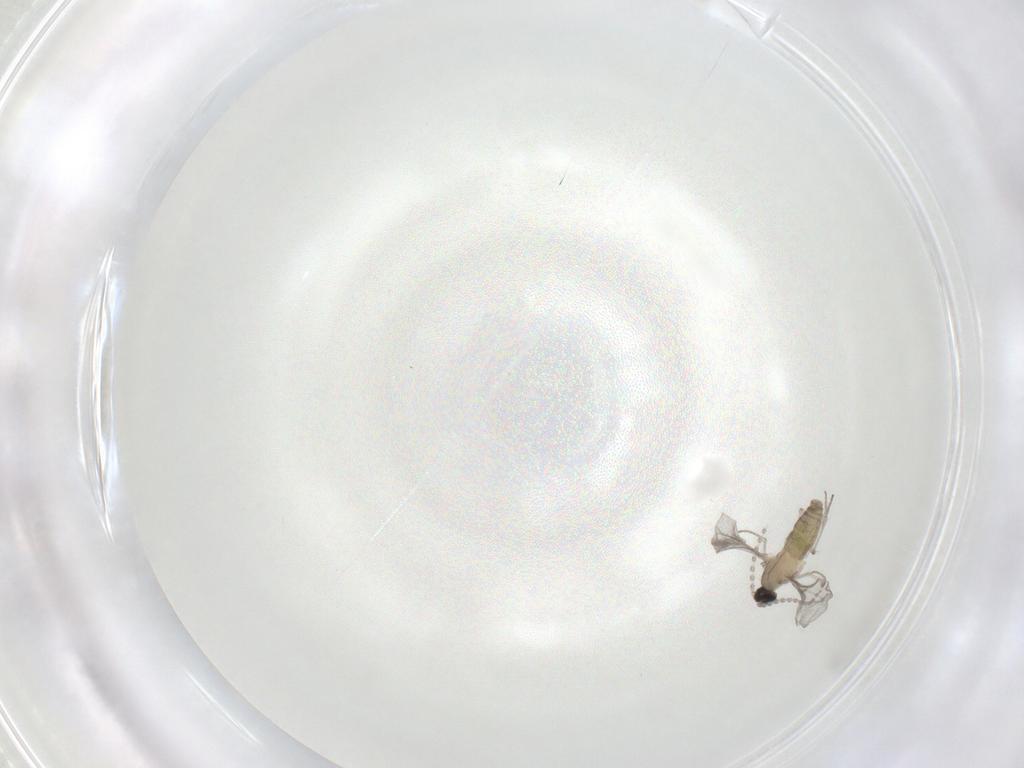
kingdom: Animalia
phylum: Arthropoda
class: Insecta
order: Diptera
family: Cecidomyiidae
